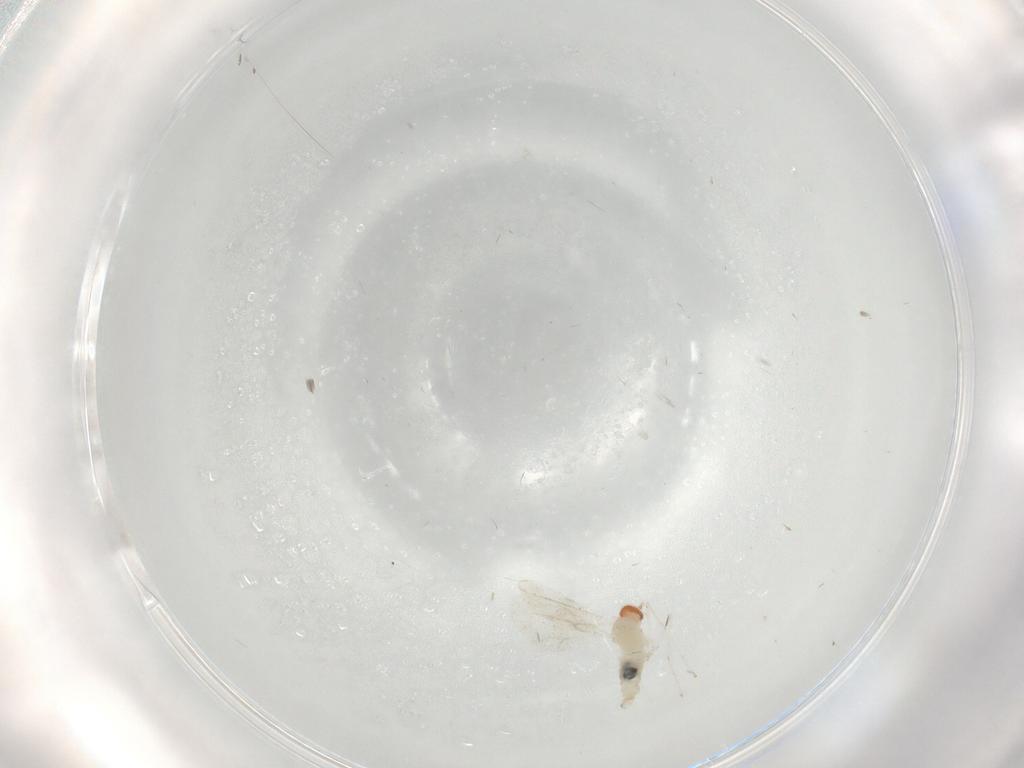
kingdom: Animalia
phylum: Arthropoda
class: Insecta
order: Diptera
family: Psychodidae
